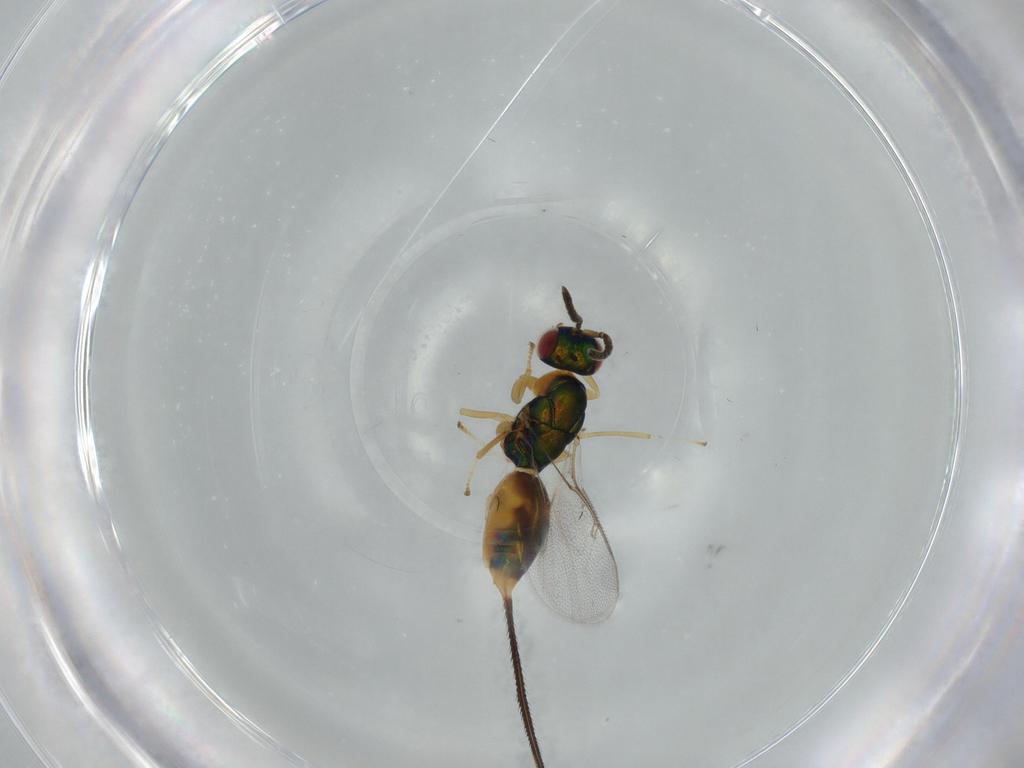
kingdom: Animalia
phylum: Arthropoda
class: Insecta
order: Hymenoptera
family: Torymidae
